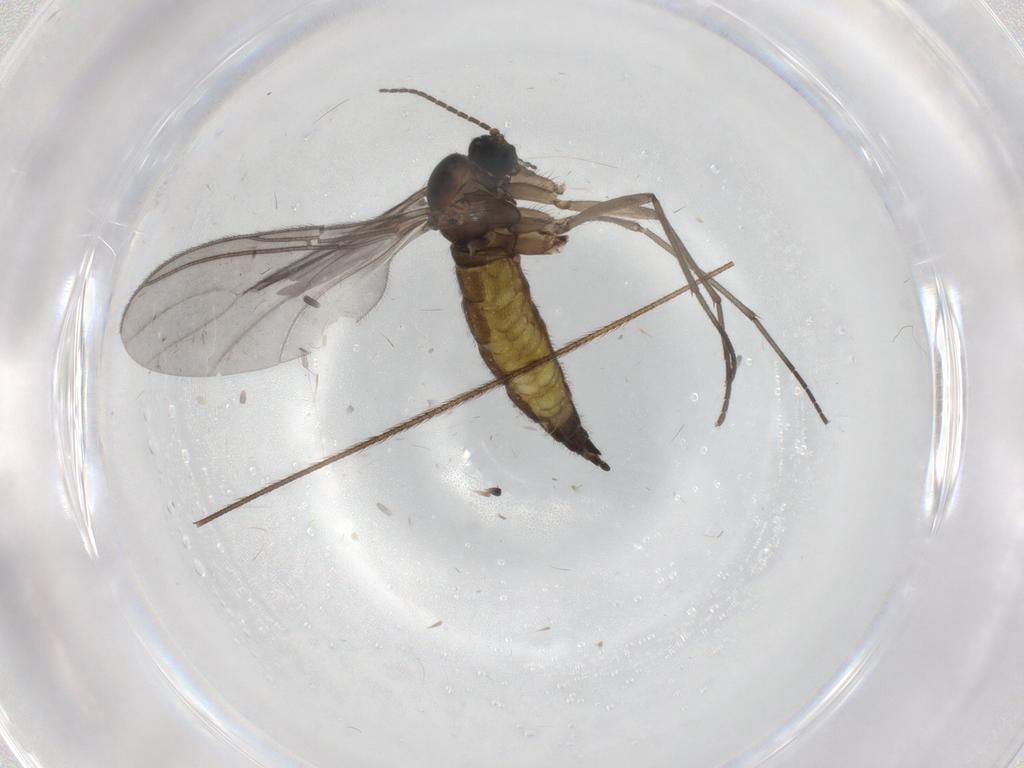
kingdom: Animalia
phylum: Arthropoda
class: Insecta
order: Diptera
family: Sciaridae
